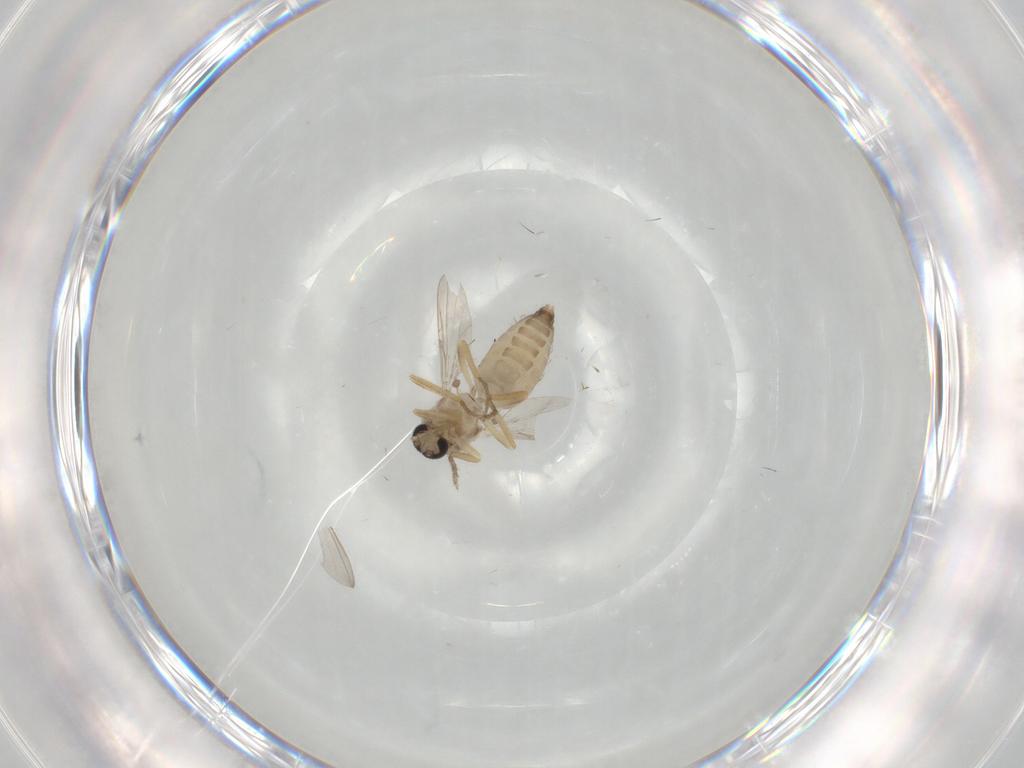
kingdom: Animalia
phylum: Arthropoda
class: Insecta
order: Diptera
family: Ceratopogonidae
